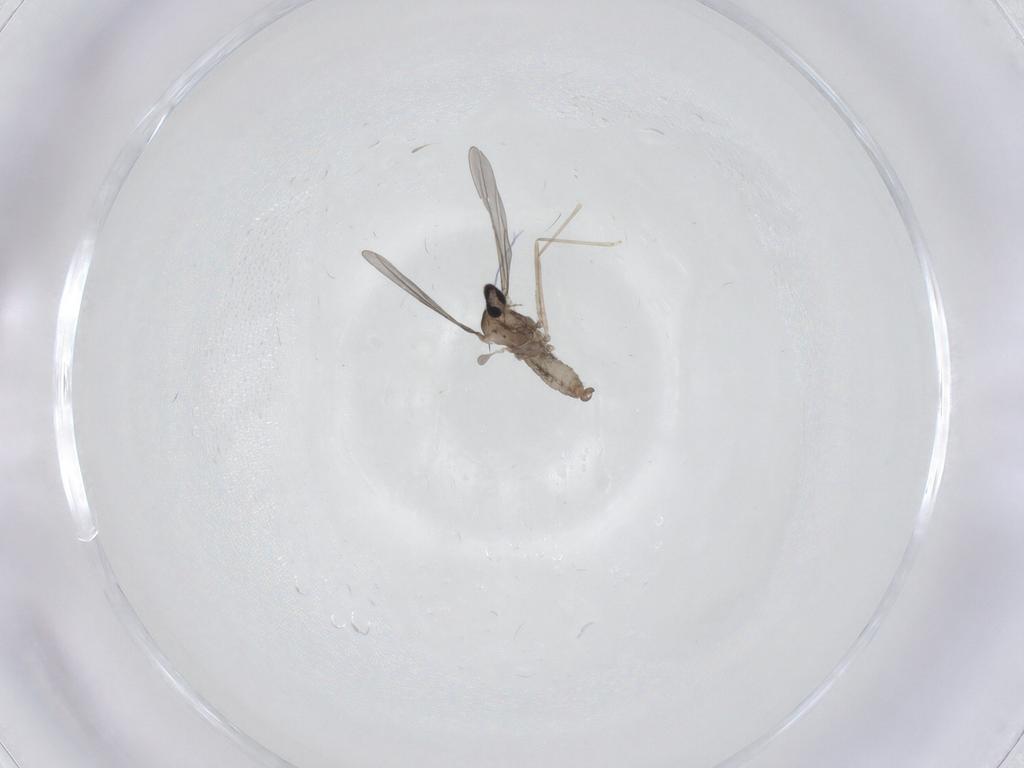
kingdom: Animalia
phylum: Arthropoda
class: Insecta
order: Diptera
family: Cecidomyiidae
